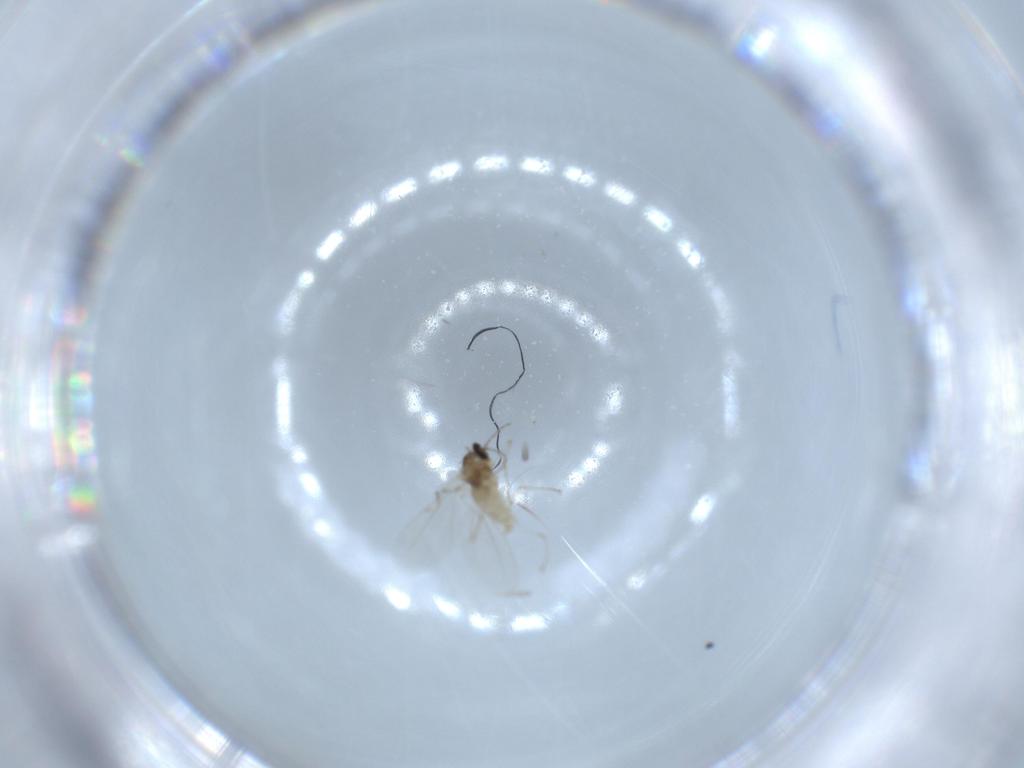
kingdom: Animalia
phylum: Arthropoda
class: Insecta
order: Diptera
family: Cecidomyiidae
